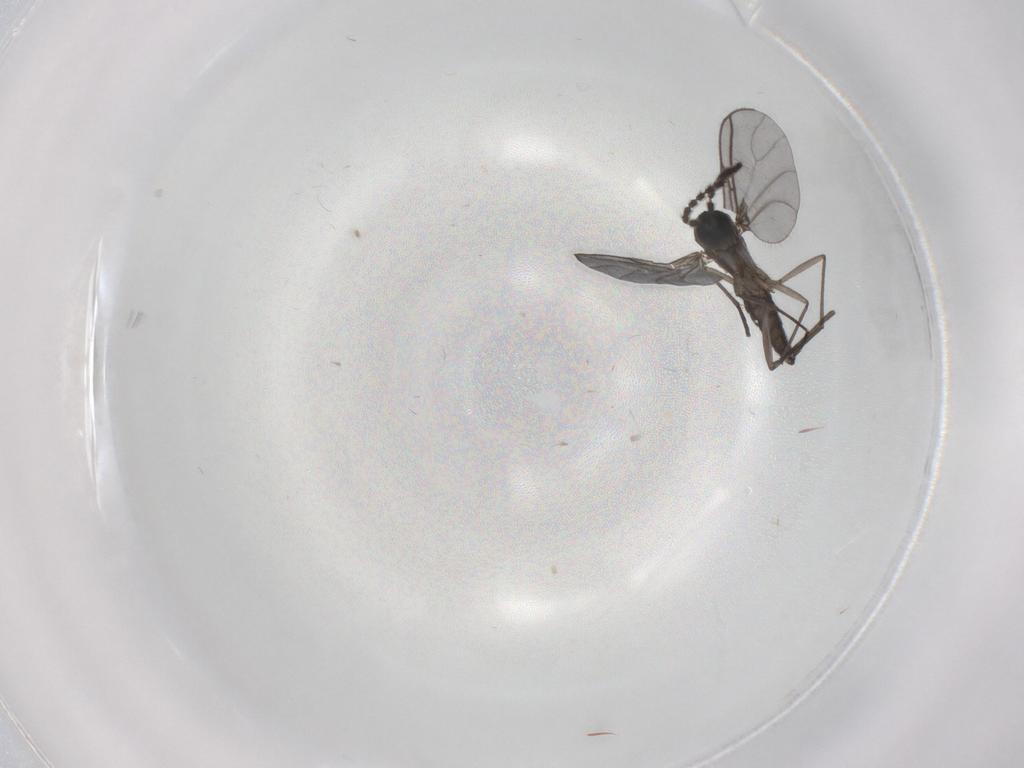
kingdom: Animalia
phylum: Arthropoda
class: Insecta
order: Diptera
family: Sciaridae
